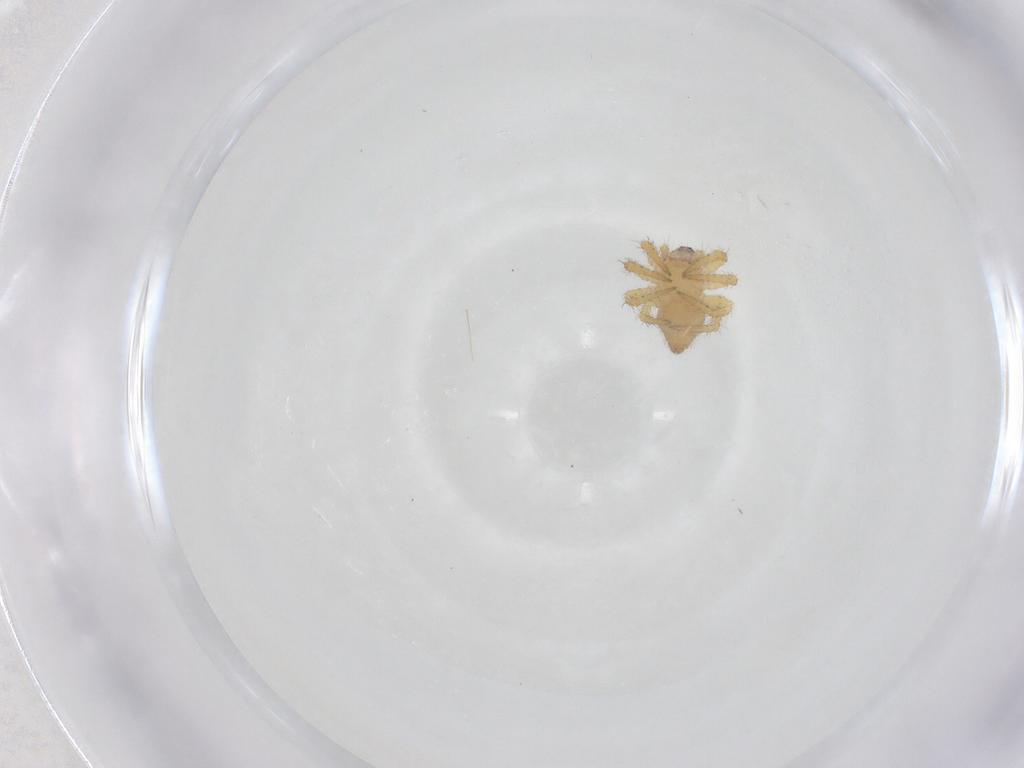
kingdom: Animalia
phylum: Arthropoda
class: Arachnida
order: Araneae
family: Theridiidae
